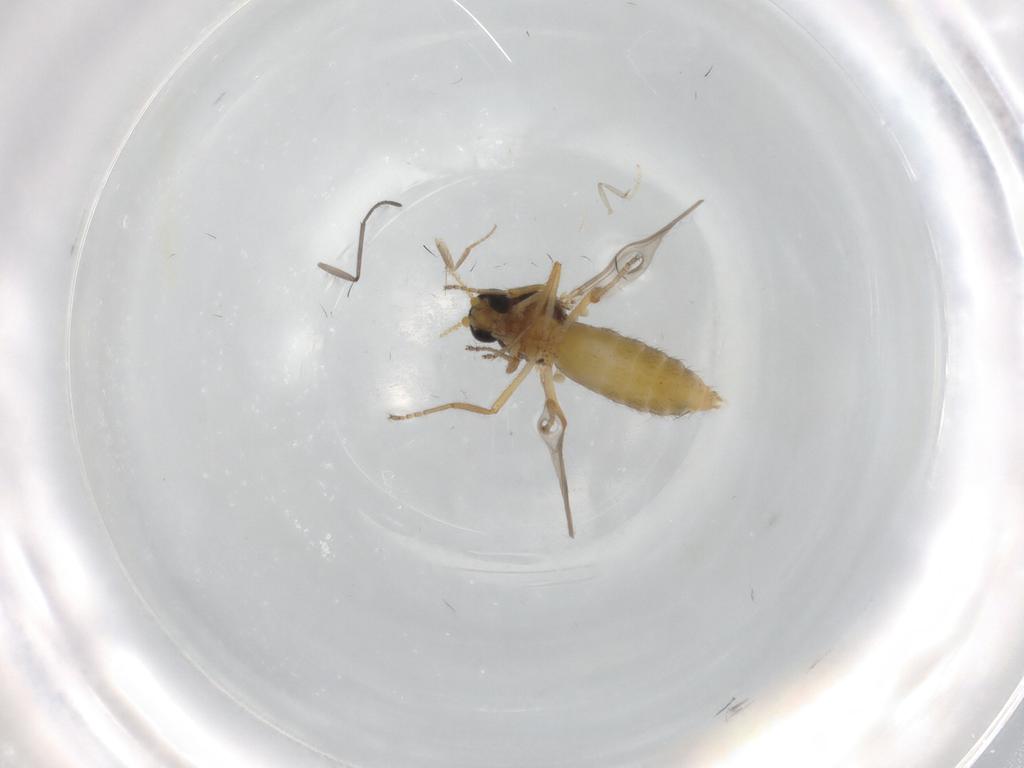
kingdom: Animalia
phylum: Arthropoda
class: Insecta
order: Diptera
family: Ceratopogonidae
